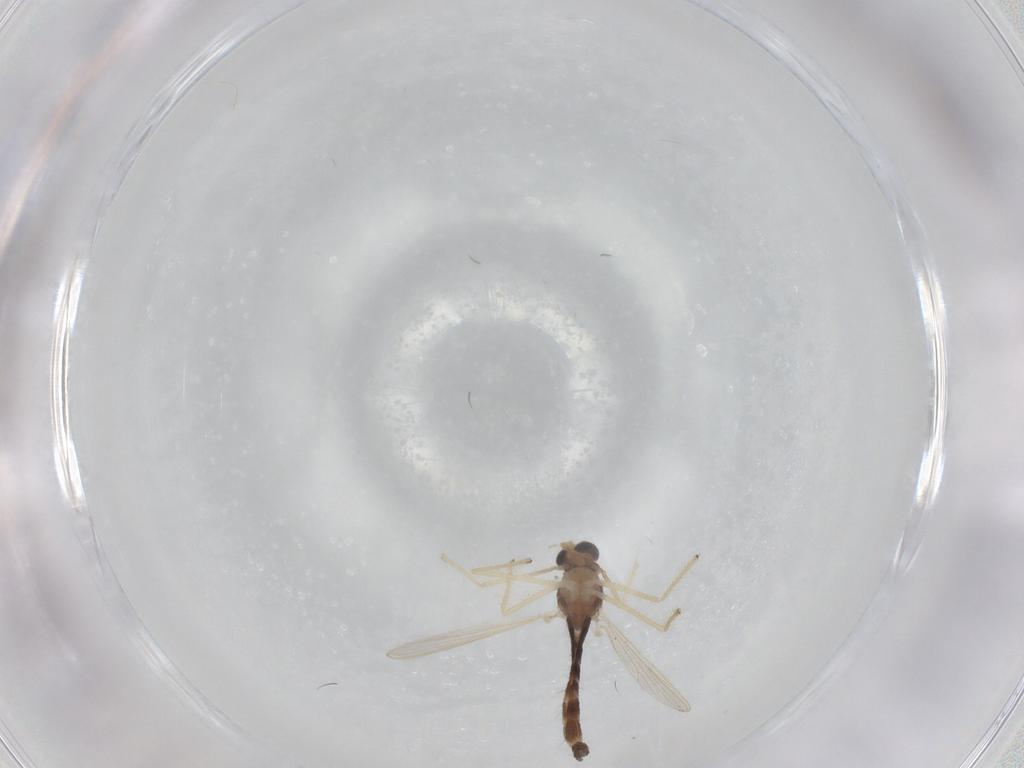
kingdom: Animalia
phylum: Arthropoda
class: Insecta
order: Diptera
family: Chironomidae
